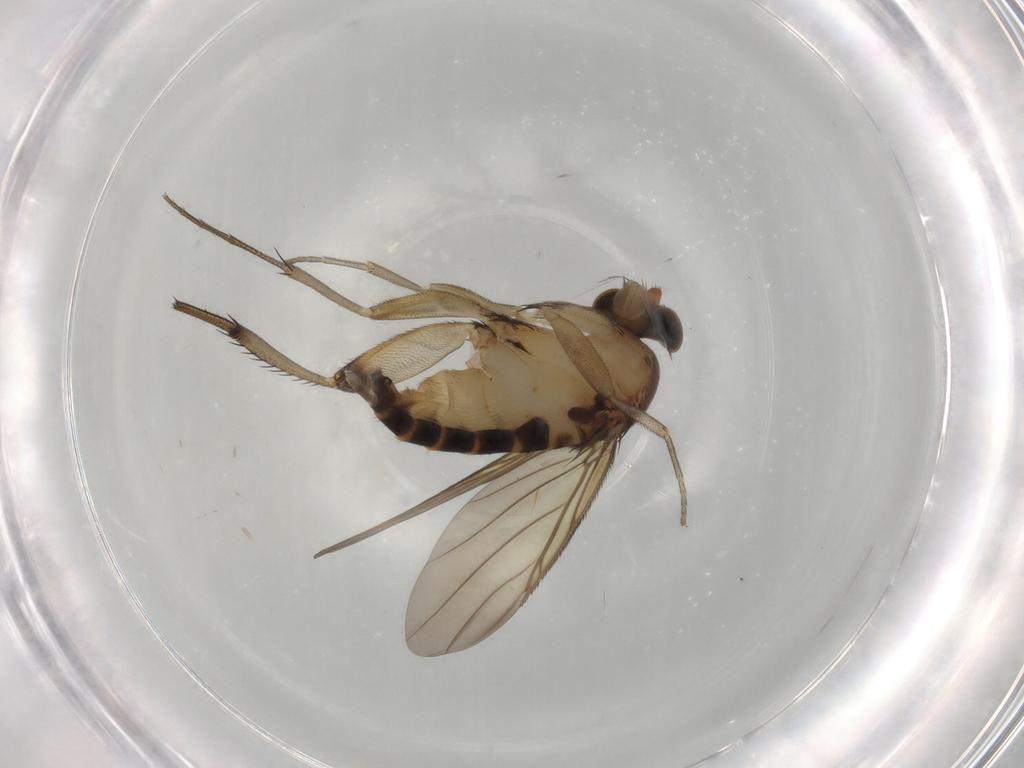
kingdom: Animalia
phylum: Arthropoda
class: Insecta
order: Diptera
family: Phoridae
